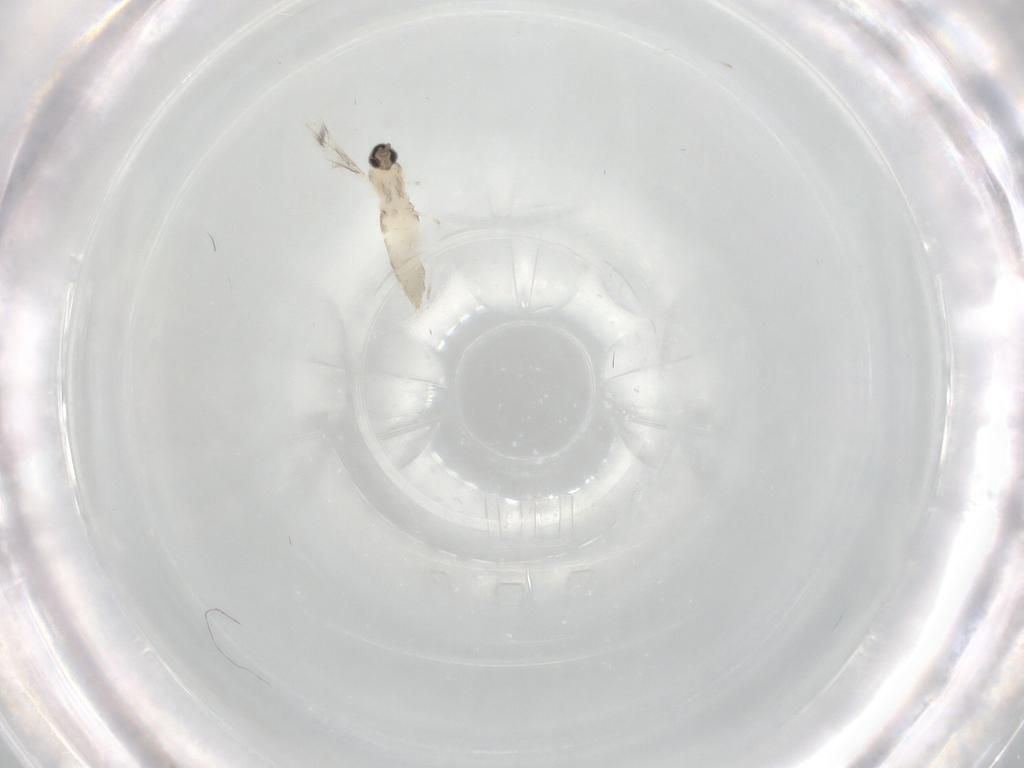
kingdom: Animalia
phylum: Arthropoda
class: Insecta
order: Diptera
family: Cecidomyiidae
